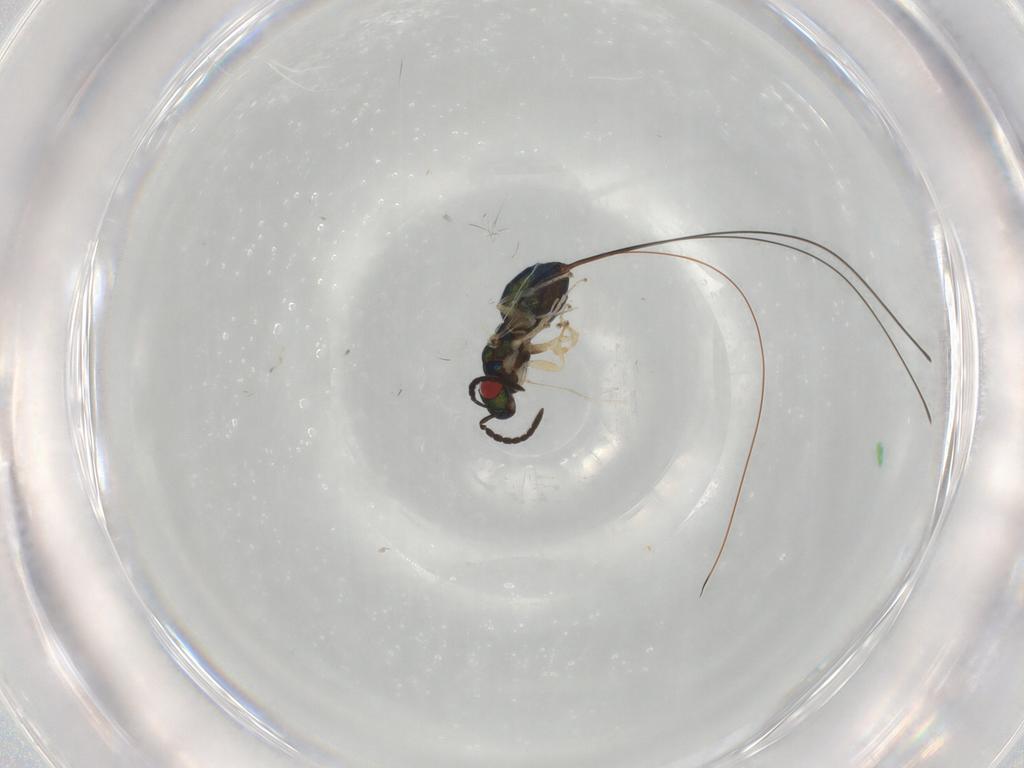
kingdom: Animalia
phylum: Arthropoda
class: Insecta
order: Hymenoptera
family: Agaonidae
